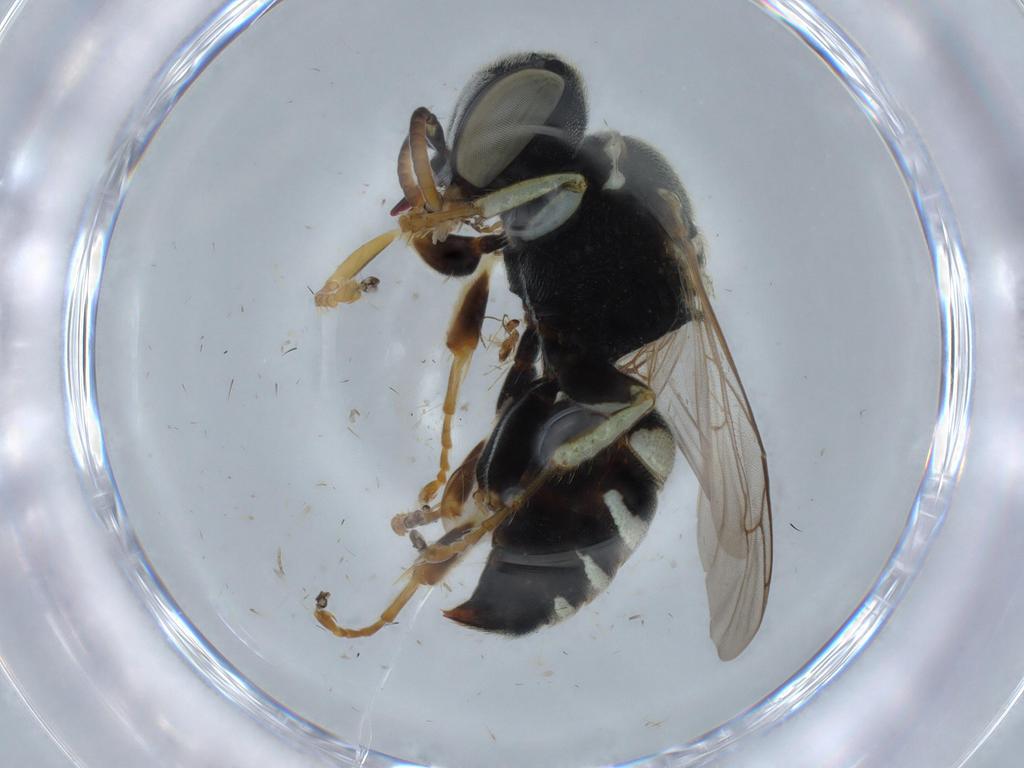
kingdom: Animalia
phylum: Arthropoda
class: Insecta
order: Hymenoptera
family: Crabronidae
